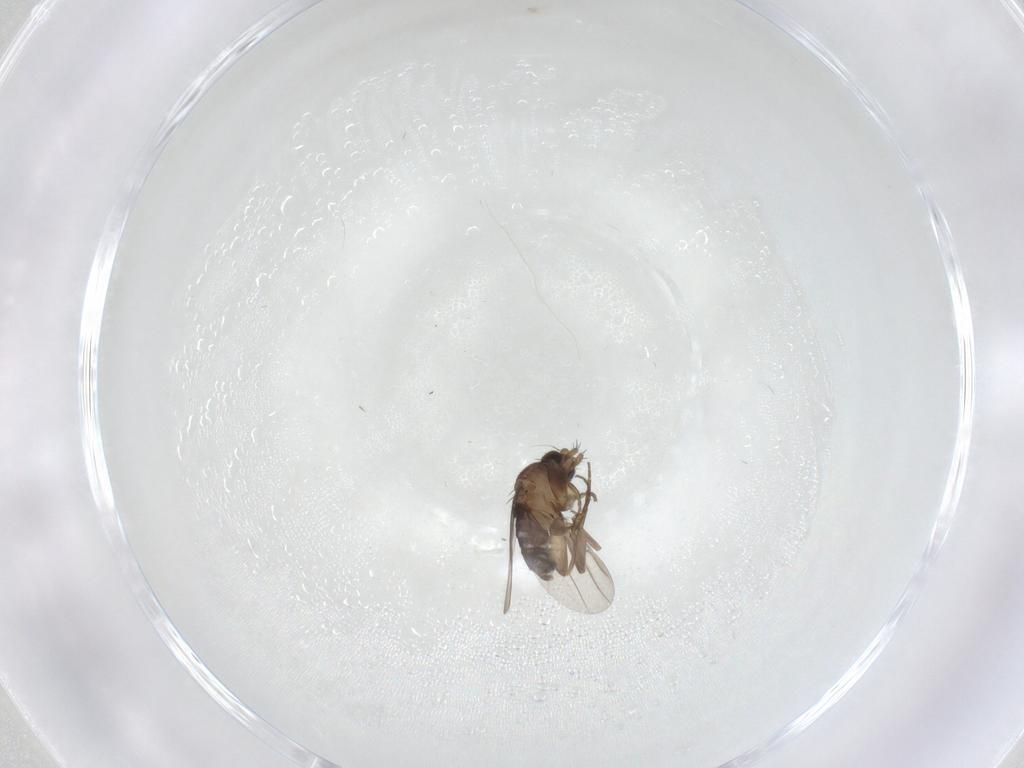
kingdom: Animalia
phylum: Arthropoda
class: Insecta
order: Diptera
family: Phoridae
